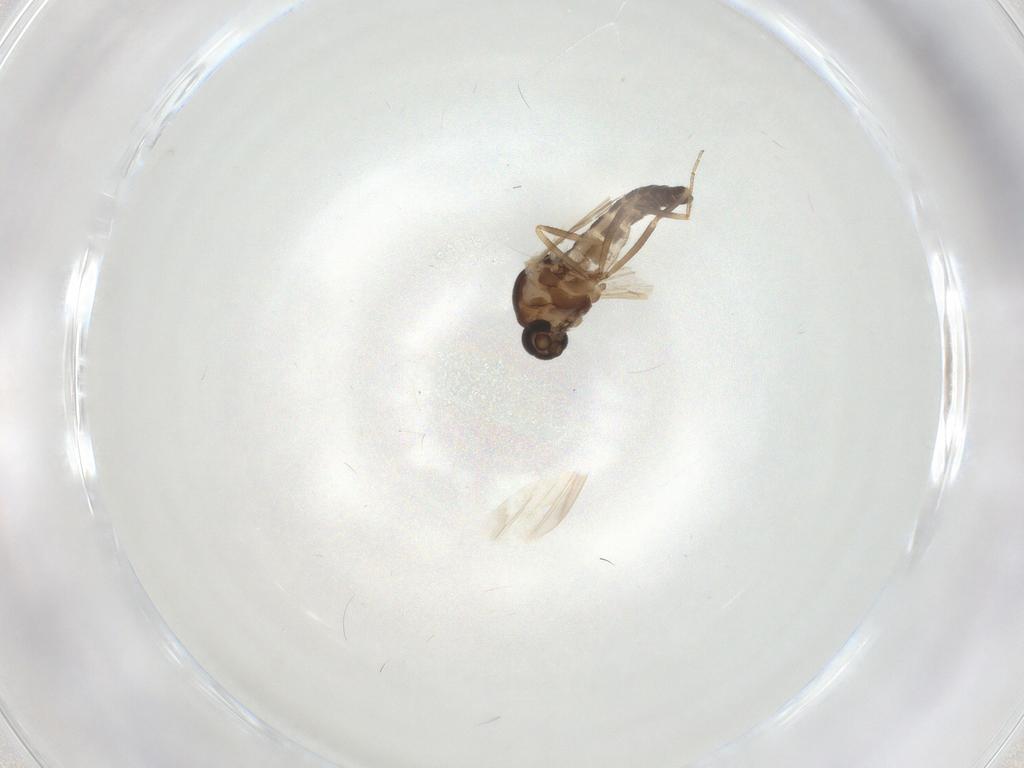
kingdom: Animalia
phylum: Arthropoda
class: Insecta
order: Diptera
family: Ceratopogonidae
